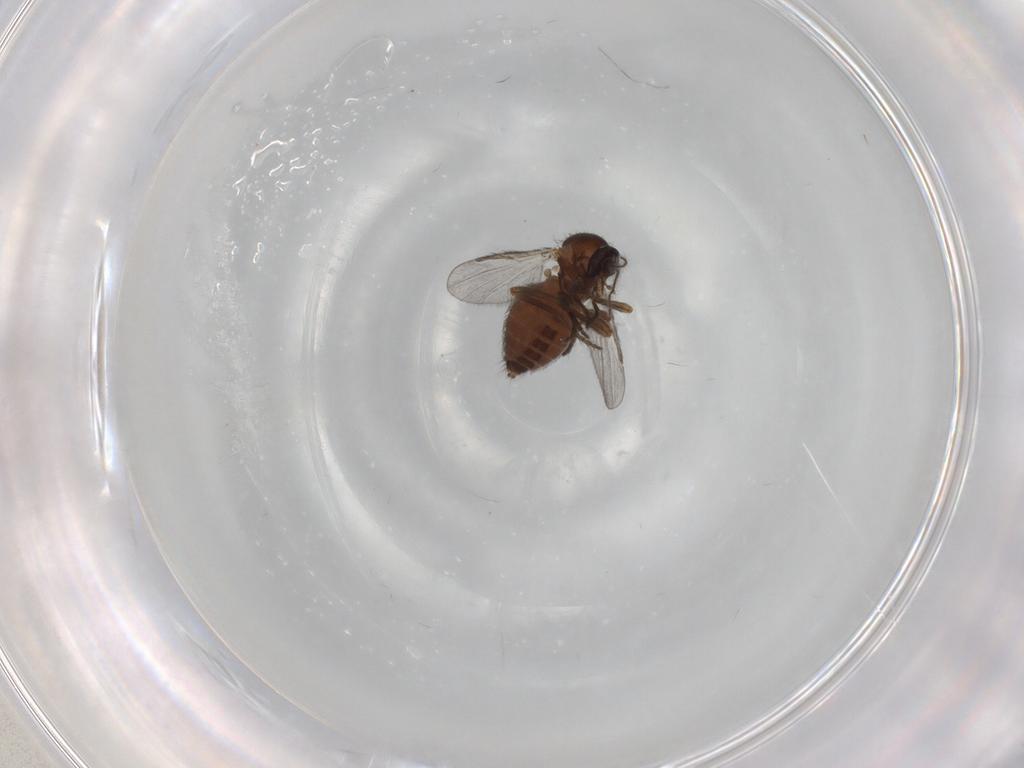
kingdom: Animalia
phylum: Arthropoda
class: Insecta
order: Diptera
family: Ceratopogonidae
